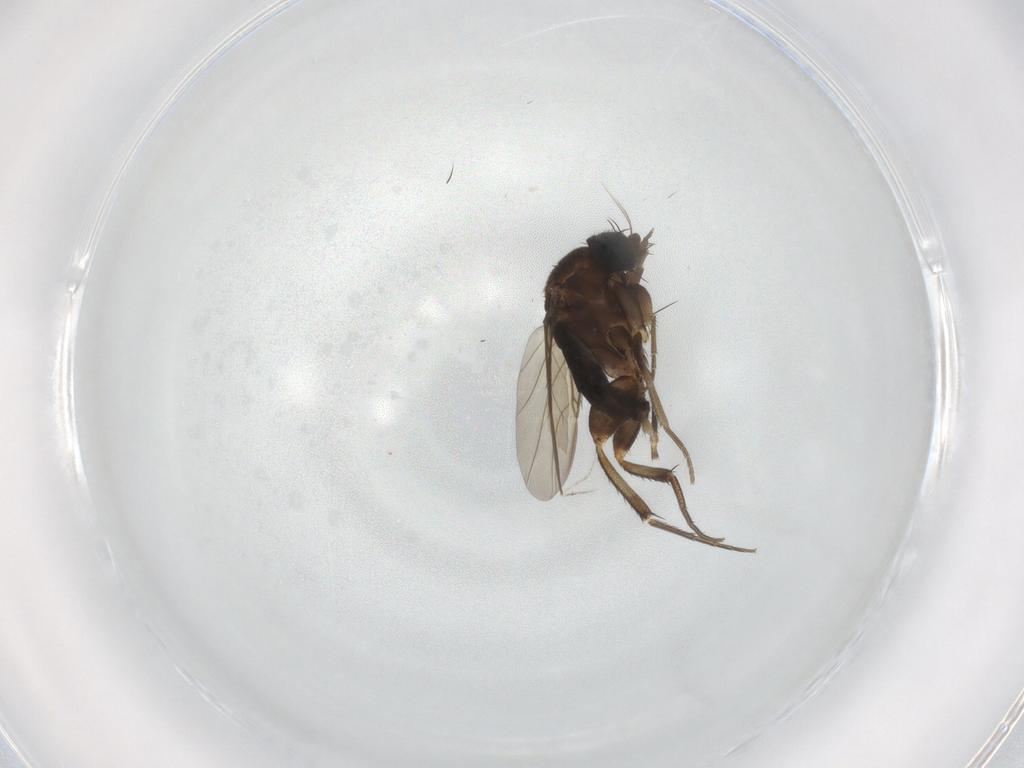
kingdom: Animalia
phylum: Arthropoda
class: Insecta
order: Diptera
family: Phoridae
